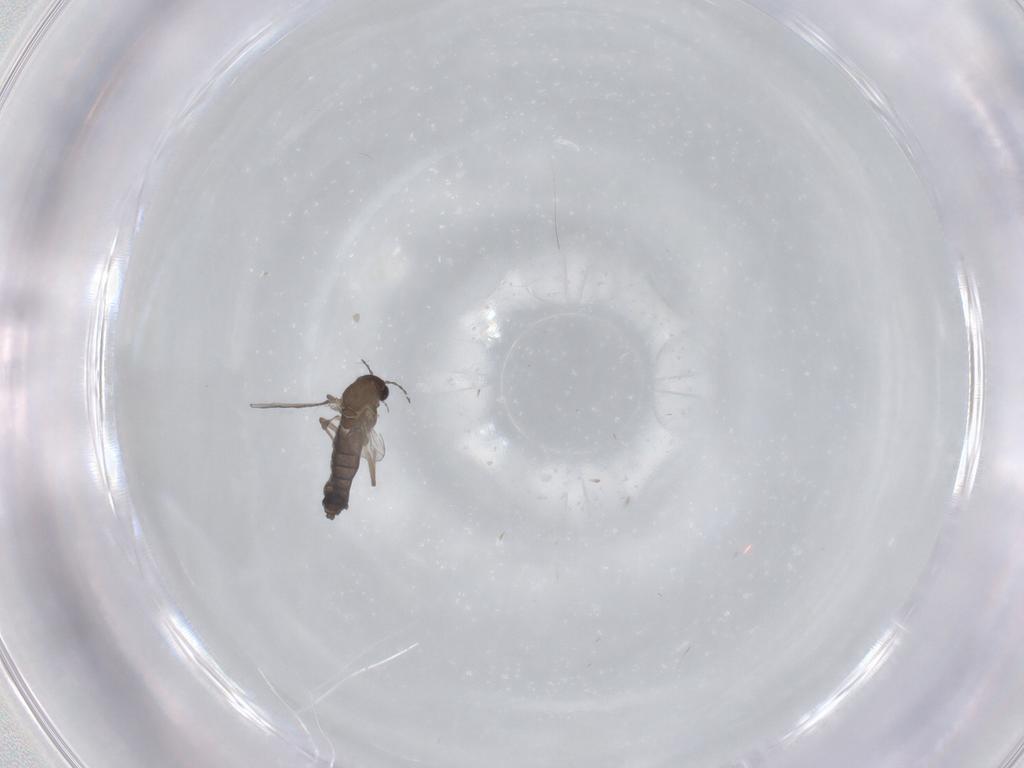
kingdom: Animalia
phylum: Arthropoda
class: Insecta
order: Diptera
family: Chironomidae
